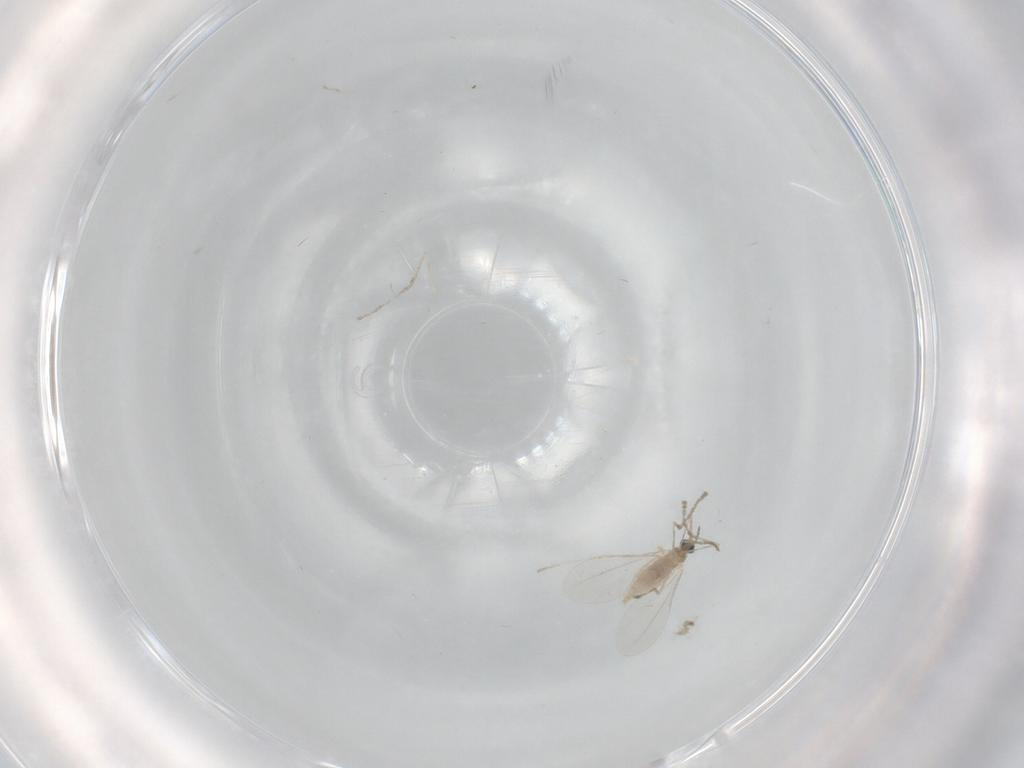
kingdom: Animalia
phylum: Arthropoda
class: Insecta
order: Diptera
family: Cecidomyiidae
